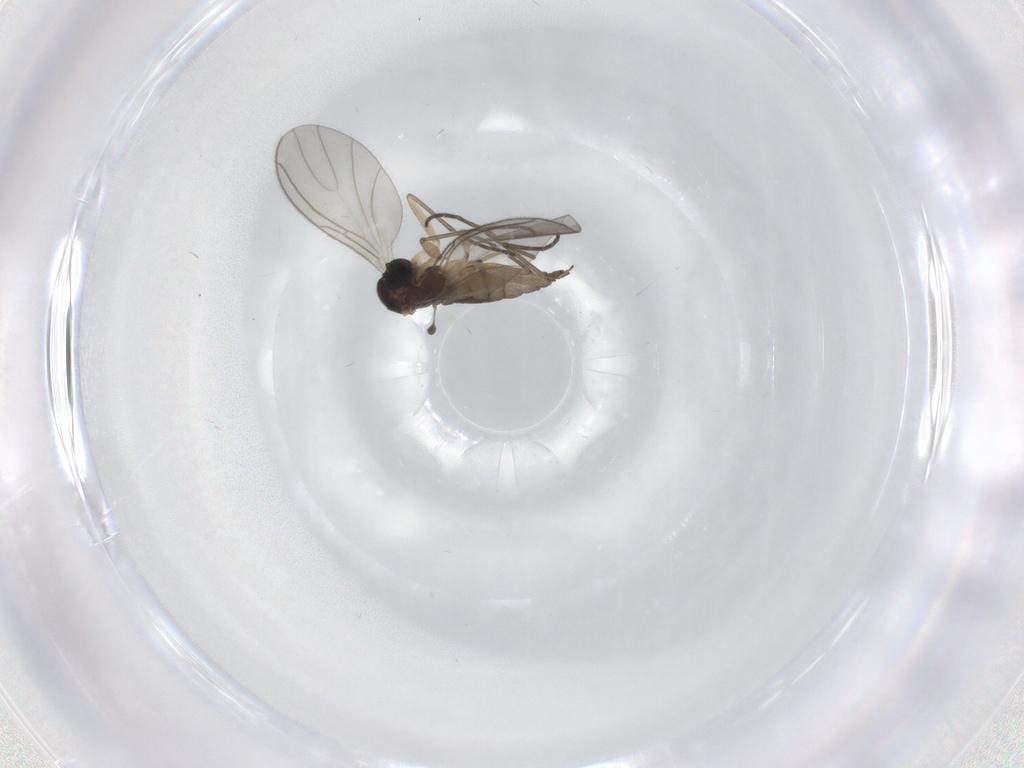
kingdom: Animalia
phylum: Arthropoda
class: Insecta
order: Diptera
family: Sciaridae
